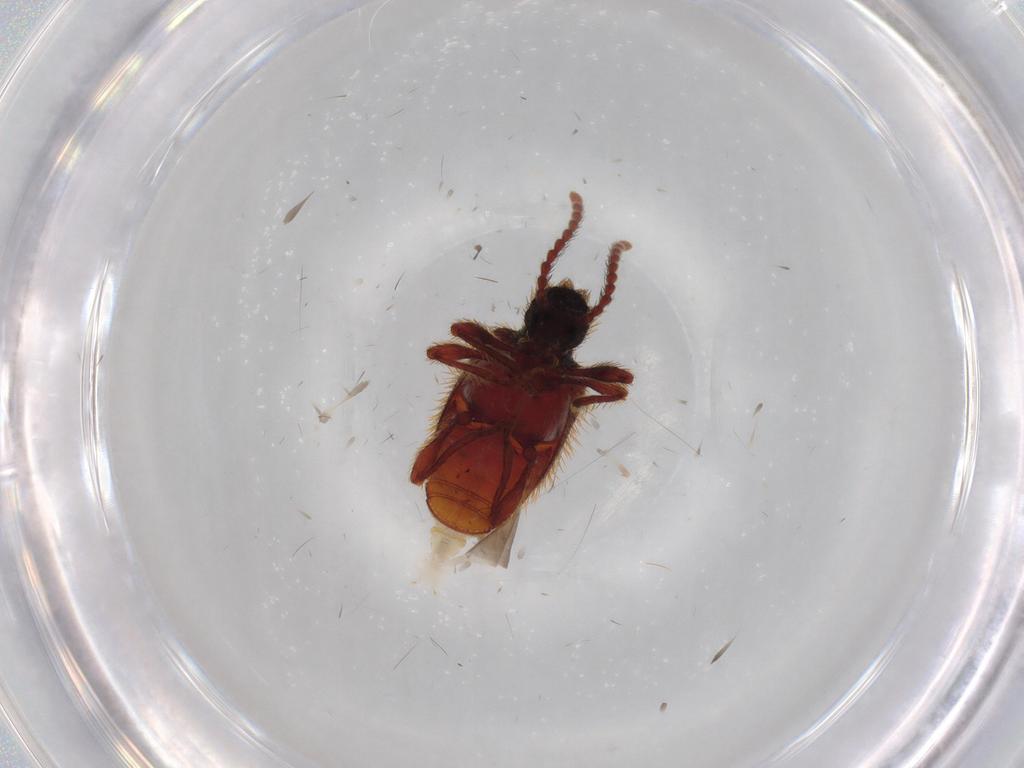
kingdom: Animalia
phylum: Arthropoda
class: Insecta
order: Coleoptera
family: Ptinidae
